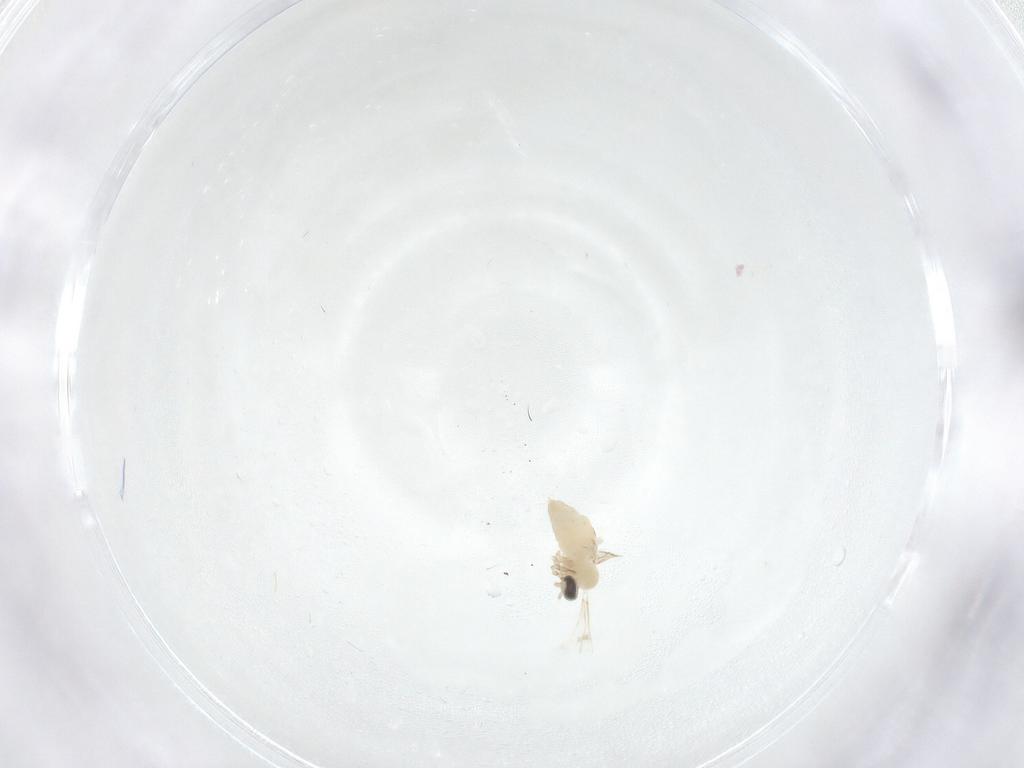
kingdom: Animalia
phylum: Arthropoda
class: Insecta
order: Diptera
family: Cecidomyiidae
